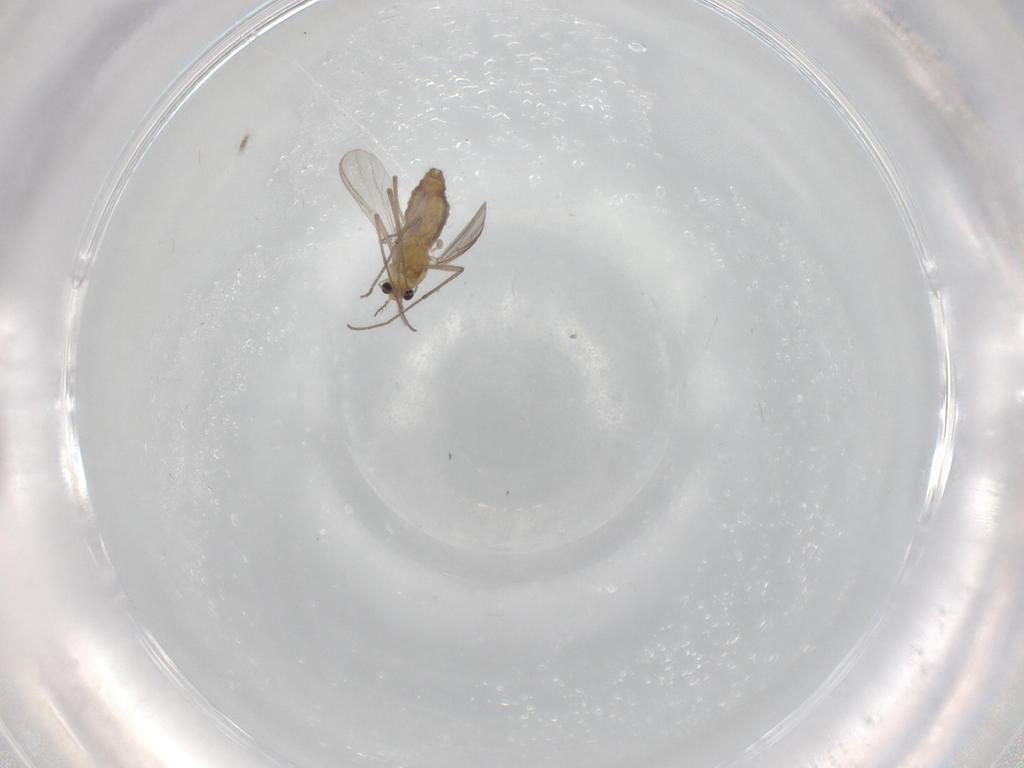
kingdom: Animalia
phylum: Arthropoda
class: Insecta
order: Diptera
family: Chironomidae
